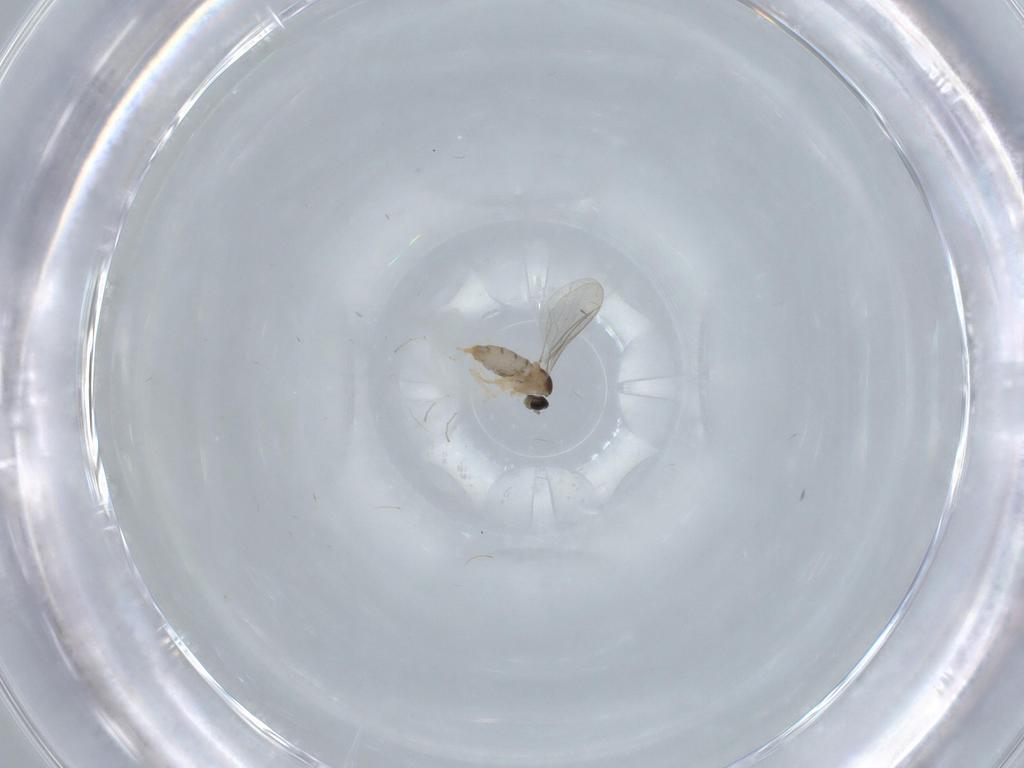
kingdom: Animalia
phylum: Arthropoda
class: Insecta
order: Diptera
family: Cecidomyiidae
